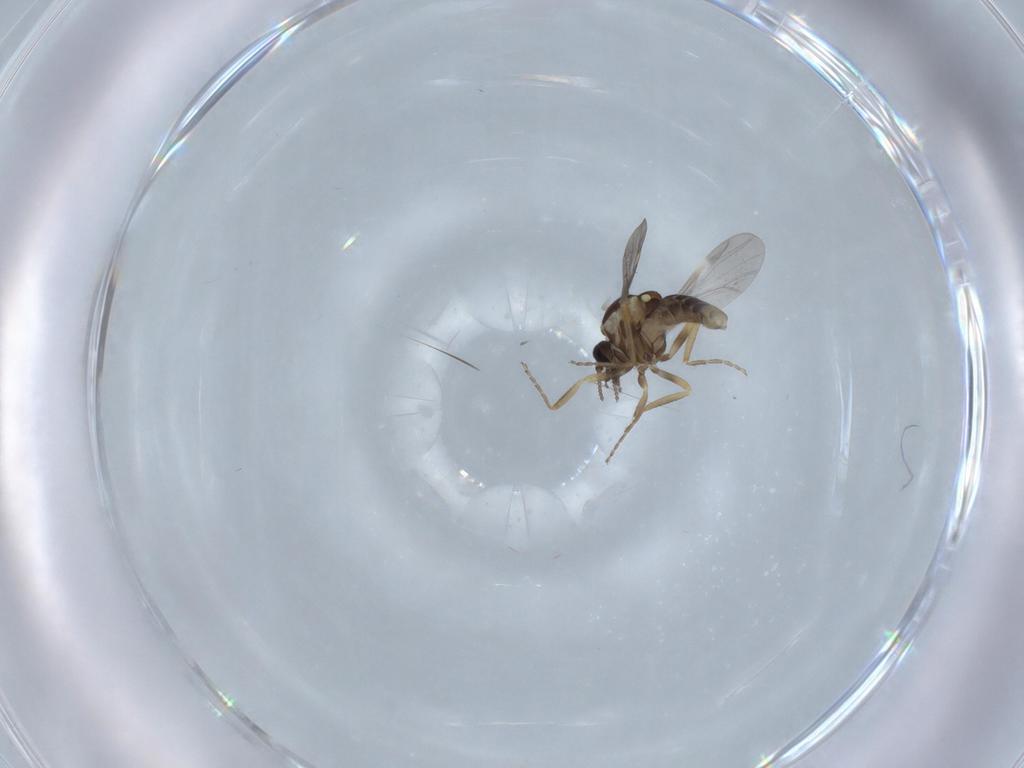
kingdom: Animalia
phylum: Arthropoda
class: Insecta
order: Diptera
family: Ceratopogonidae
